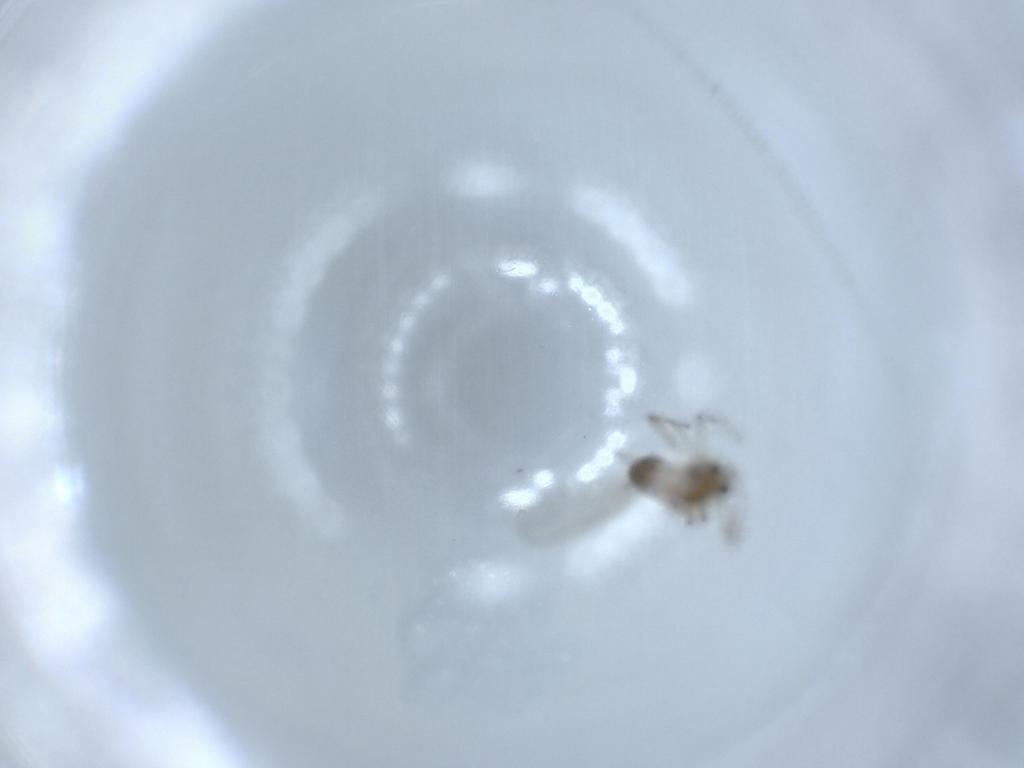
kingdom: Animalia
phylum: Arthropoda
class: Insecta
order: Diptera
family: Chironomidae
